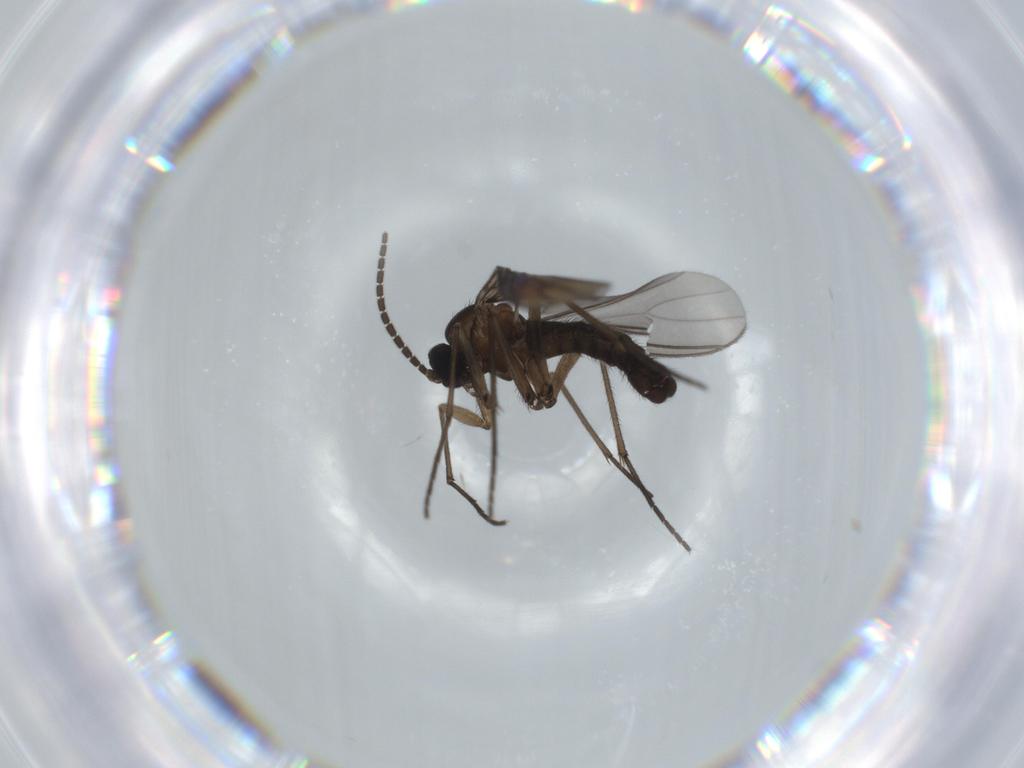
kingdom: Animalia
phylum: Arthropoda
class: Insecta
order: Diptera
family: Sciaridae
